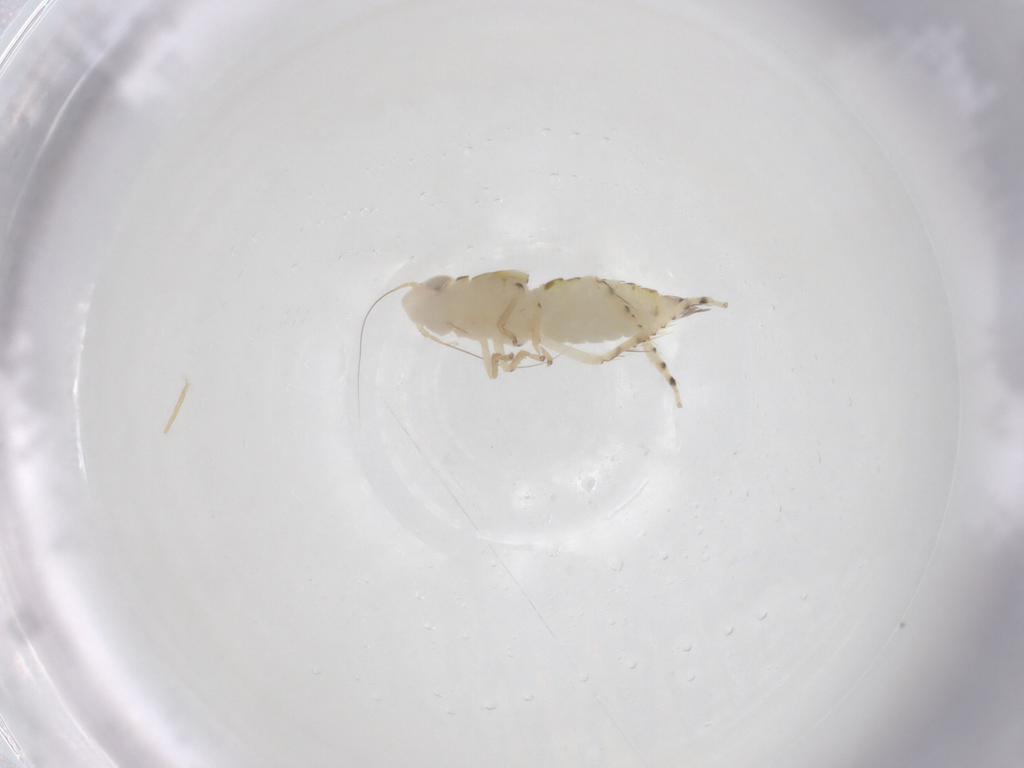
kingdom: Animalia
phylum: Arthropoda
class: Insecta
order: Hemiptera
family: Cicadellidae
